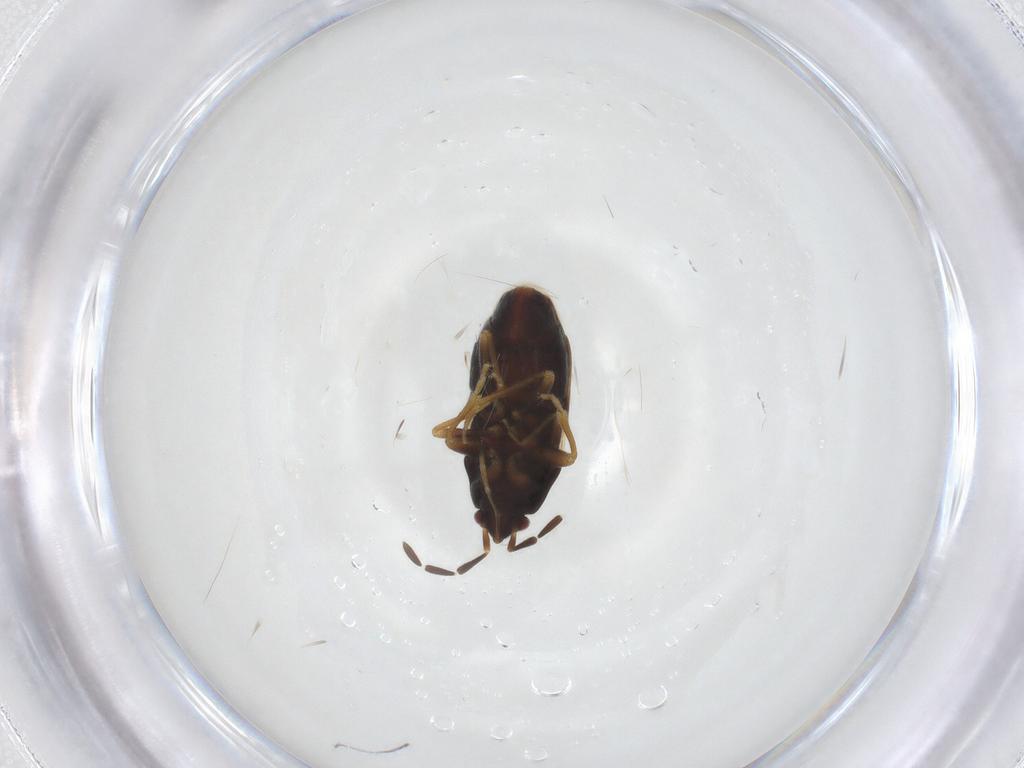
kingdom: Animalia
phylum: Arthropoda
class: Insecta
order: Hemiptera
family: Rhyparochromidae
